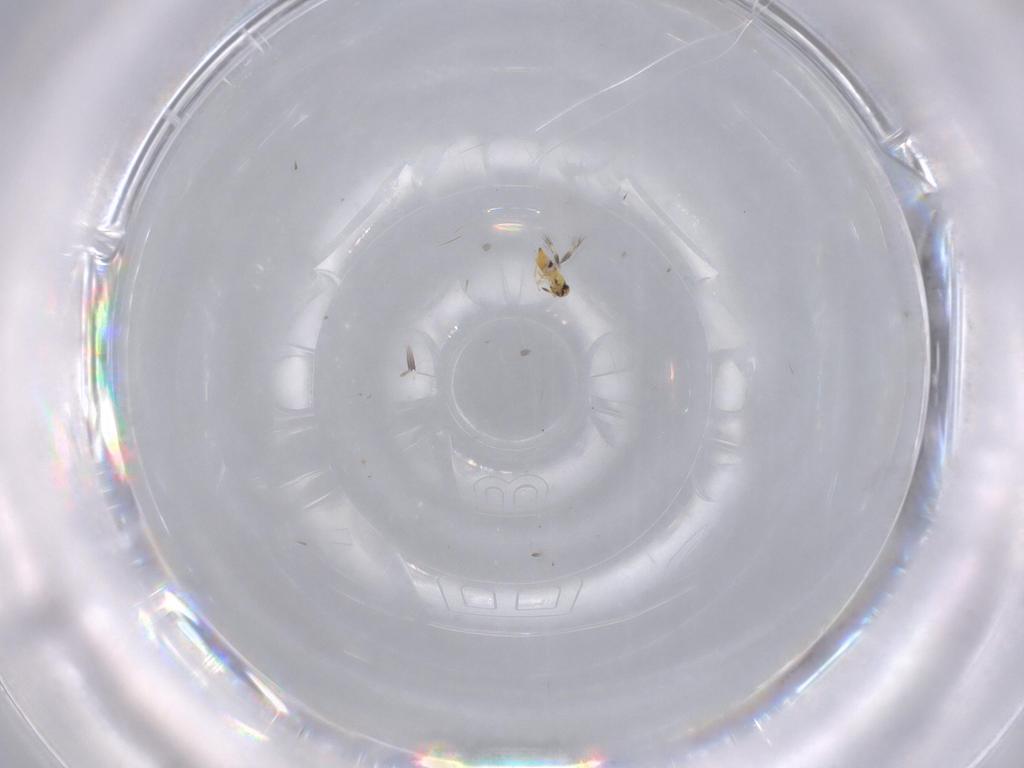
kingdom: Animalia
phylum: Arthropoda
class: Insecta
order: Hymenoptera
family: Signiphoridae
